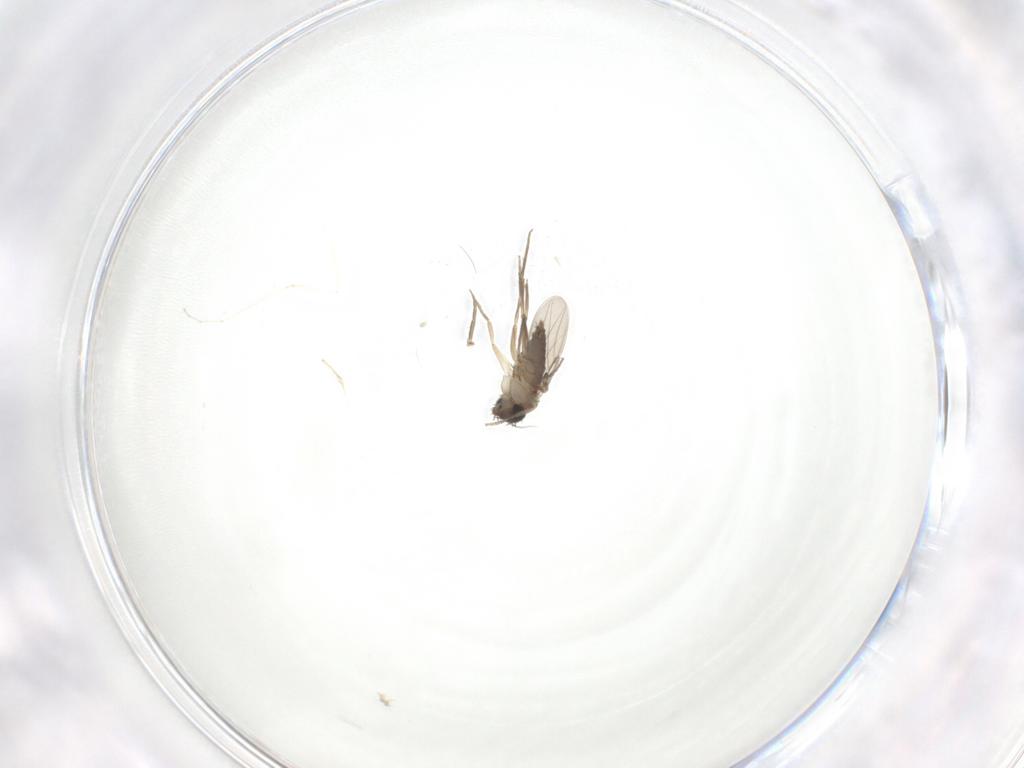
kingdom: Animalia
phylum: Arthropoda
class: Insecta
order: Diptera
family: Phoridae
